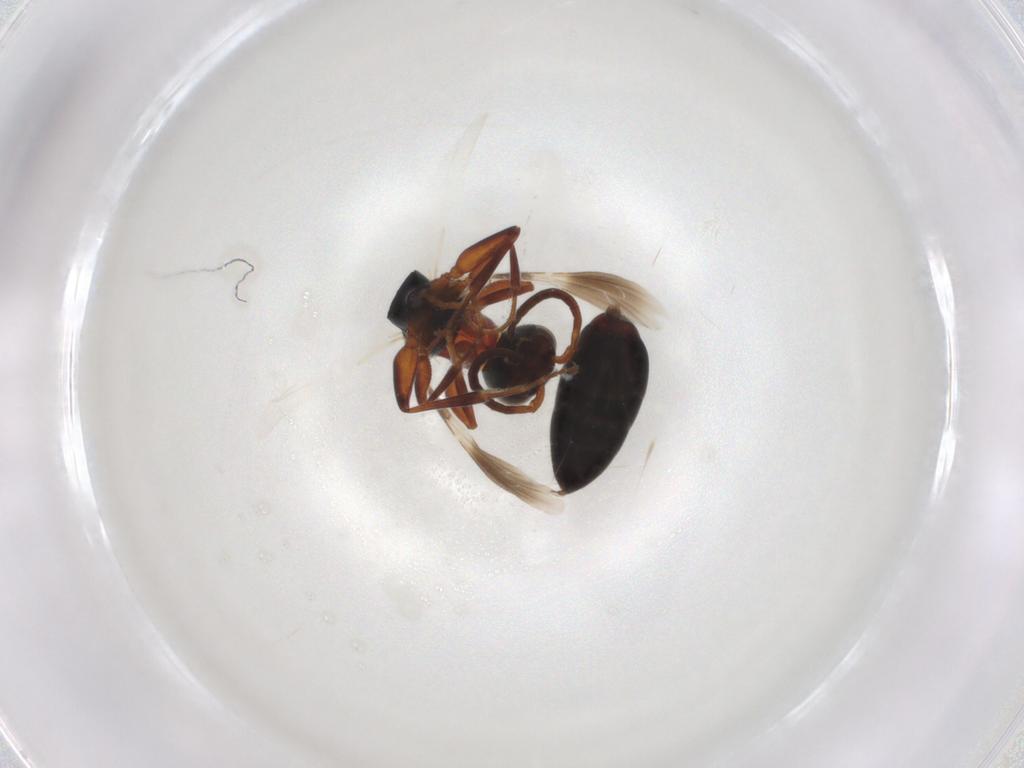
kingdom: Animalia
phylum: Arthropoda
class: Insecta
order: Hymenoptera
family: Bethylidae
